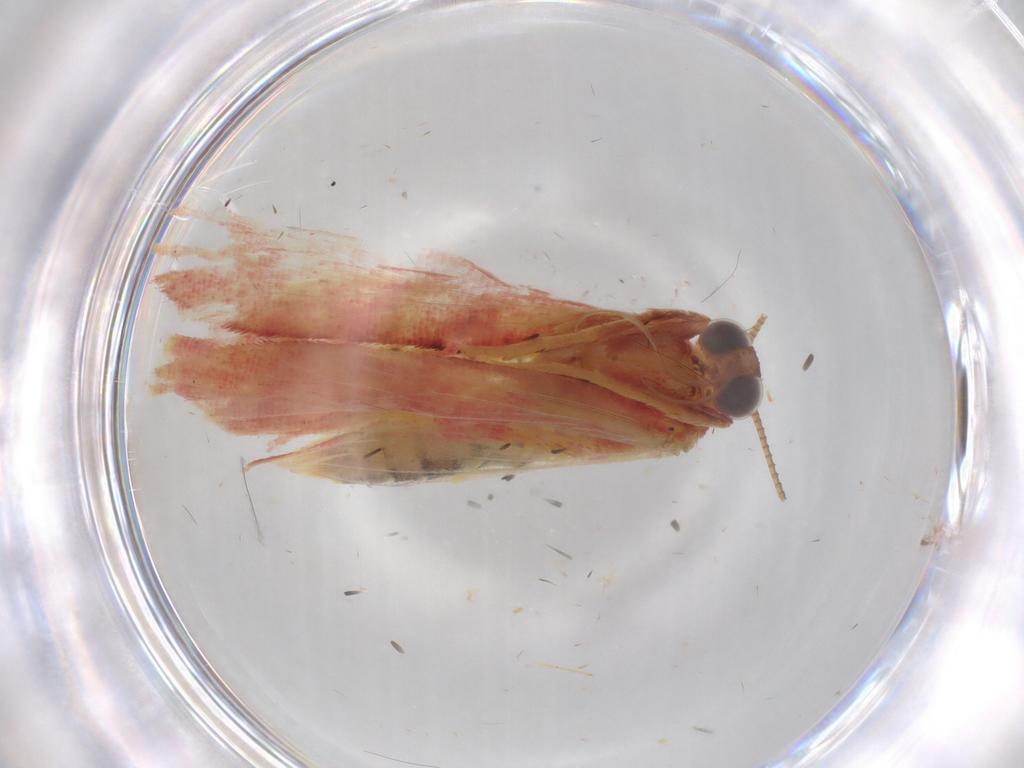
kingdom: Animalia
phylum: Arthropoda
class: Insecta
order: Lepidoptera
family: Geometridae
